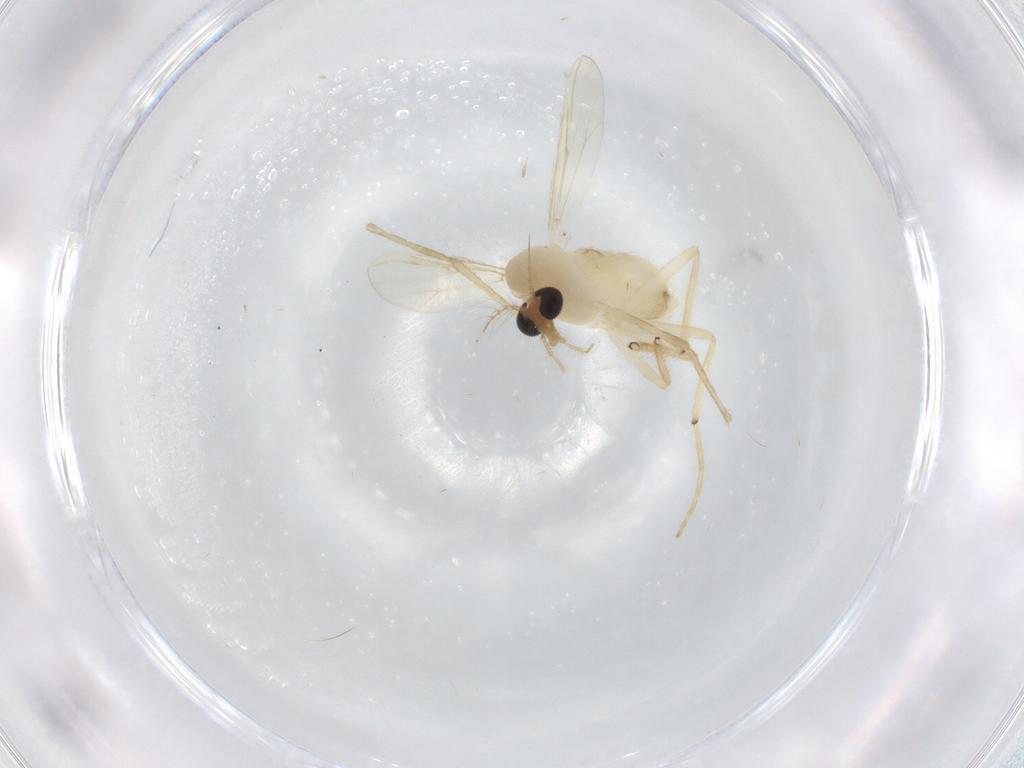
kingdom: Animalia
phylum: Arthropoda
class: Insecta
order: Diptera
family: Chironomidae
